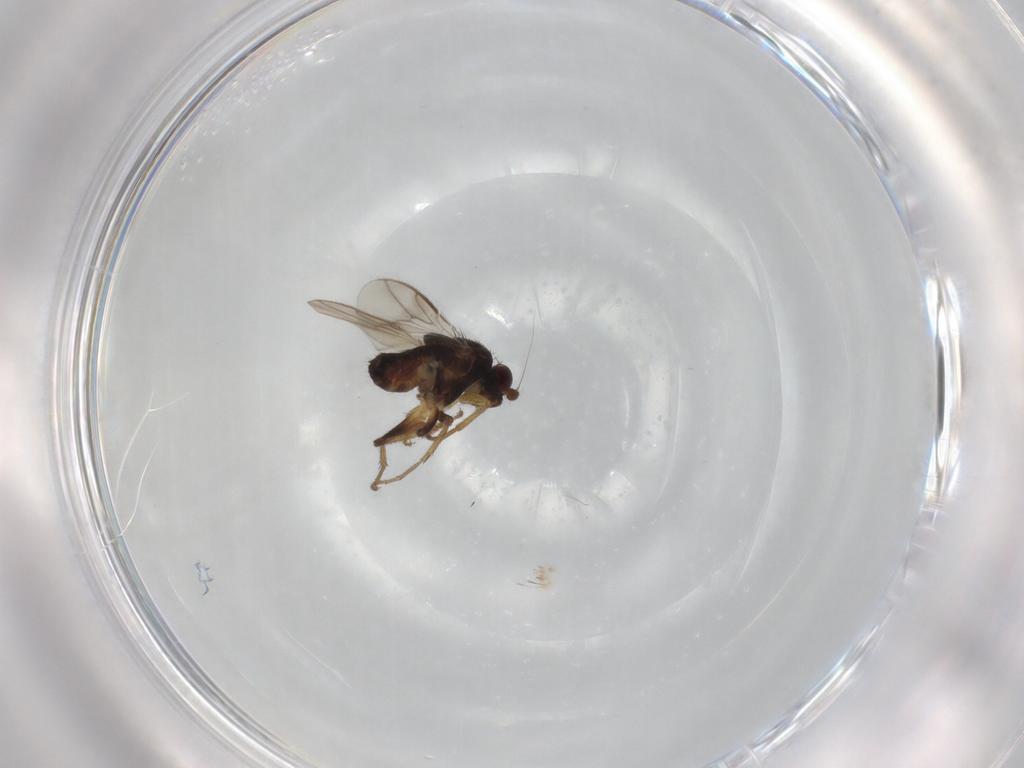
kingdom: Animalia
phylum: Arthropoda
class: Insecta
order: Diptera
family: Sphaeroceridae
